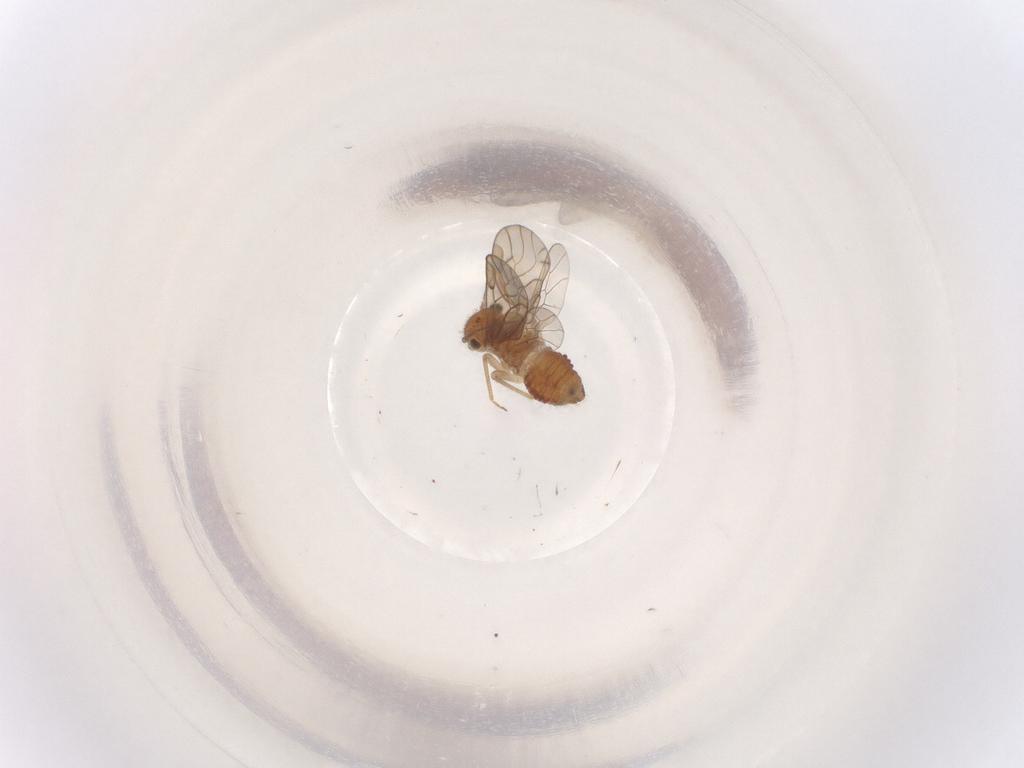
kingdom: Animalia
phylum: Arthropoda
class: Insecta
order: Psocodea
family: Ectopsocidae
